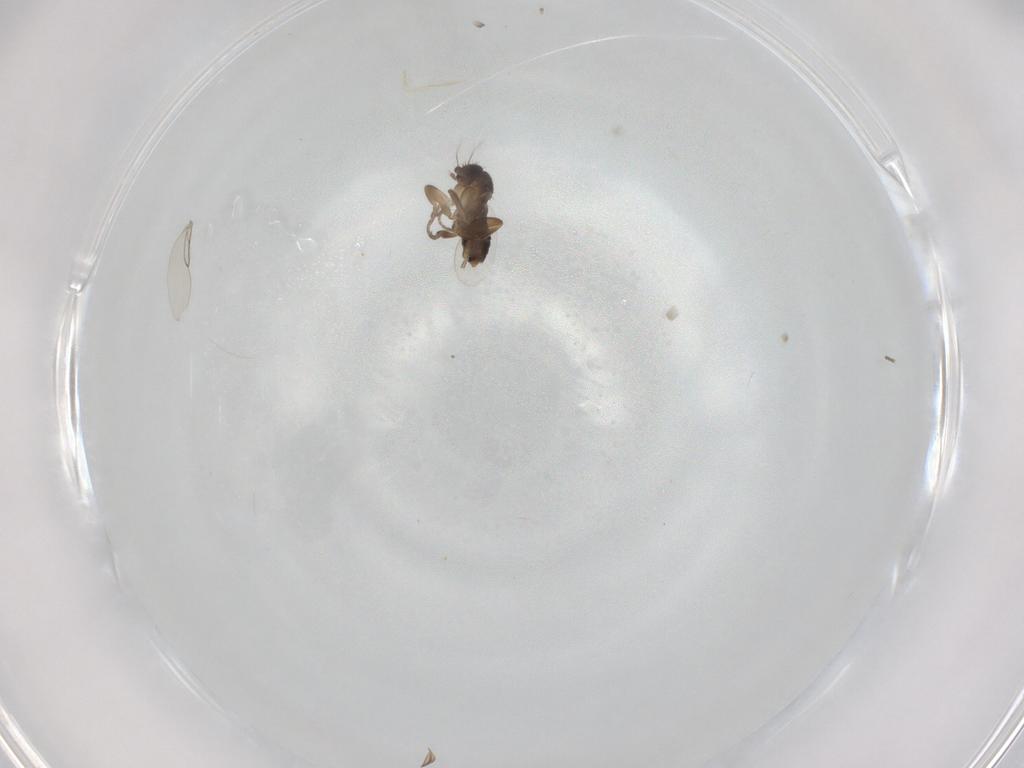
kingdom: Animalia
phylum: Arthropoda
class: Insecta
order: Diptera
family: Phoridae
